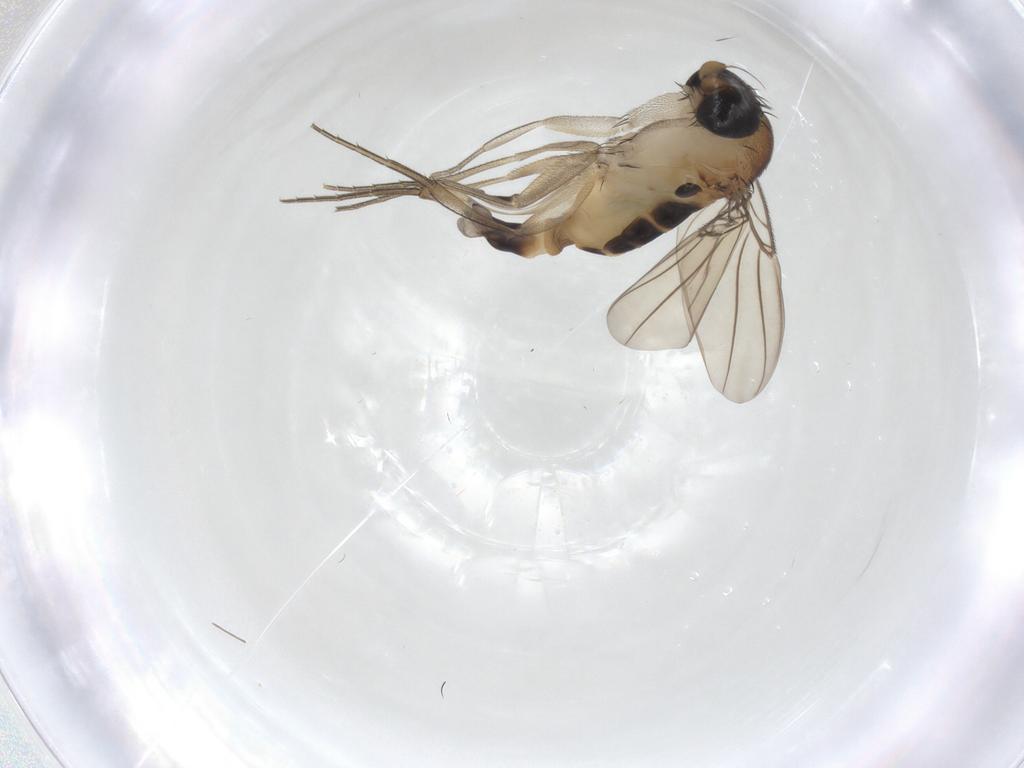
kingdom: Animalia
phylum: Arthropoda
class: Insecta
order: Diptera
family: Phoridae
